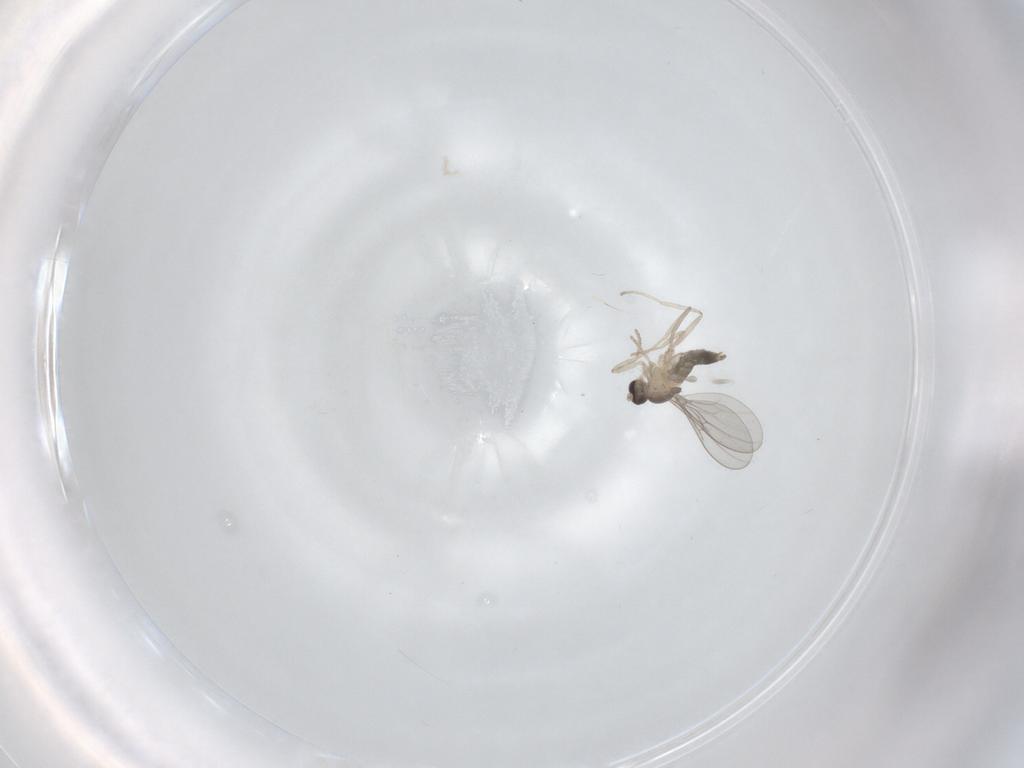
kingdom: Animalia
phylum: Arthropoda
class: Insecta
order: Diptera
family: Cecidomyiidae
